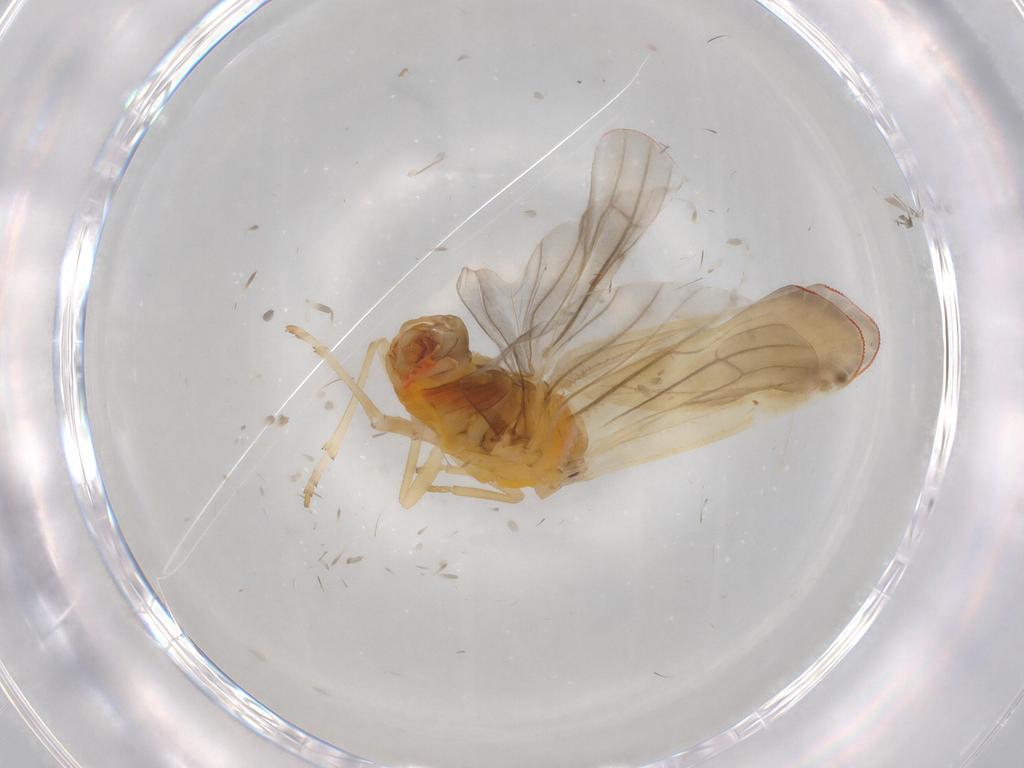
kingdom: Animalia
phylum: Arthropoda
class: Insecta
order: Hemiptera
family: Derbidae
